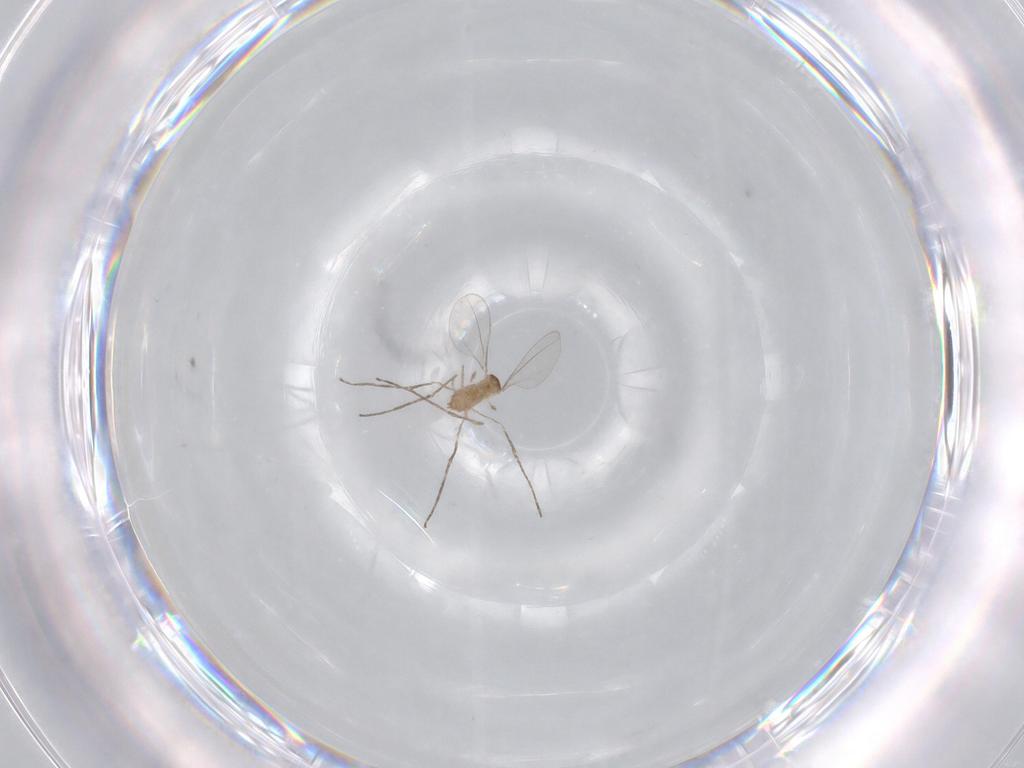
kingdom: Animalia
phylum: Arthropoda
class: Insecta
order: Diptera
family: Cecidomyiidae
